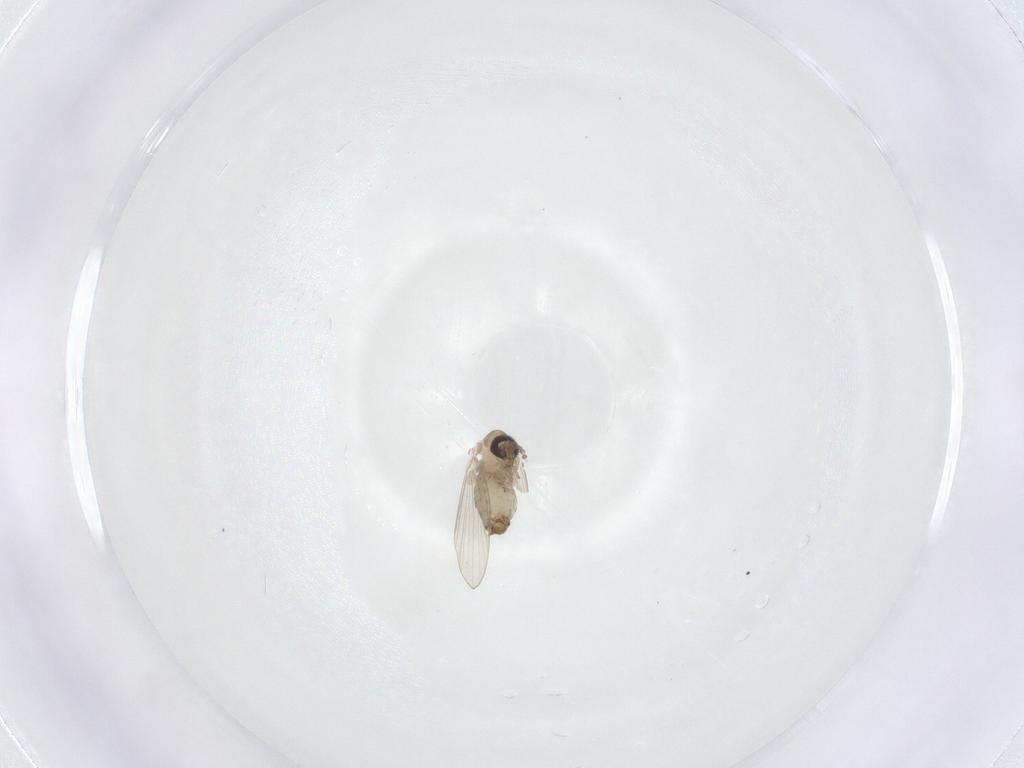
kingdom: Animalia
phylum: Arthropoda
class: Insecta
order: Diptera
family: Psychodidae
